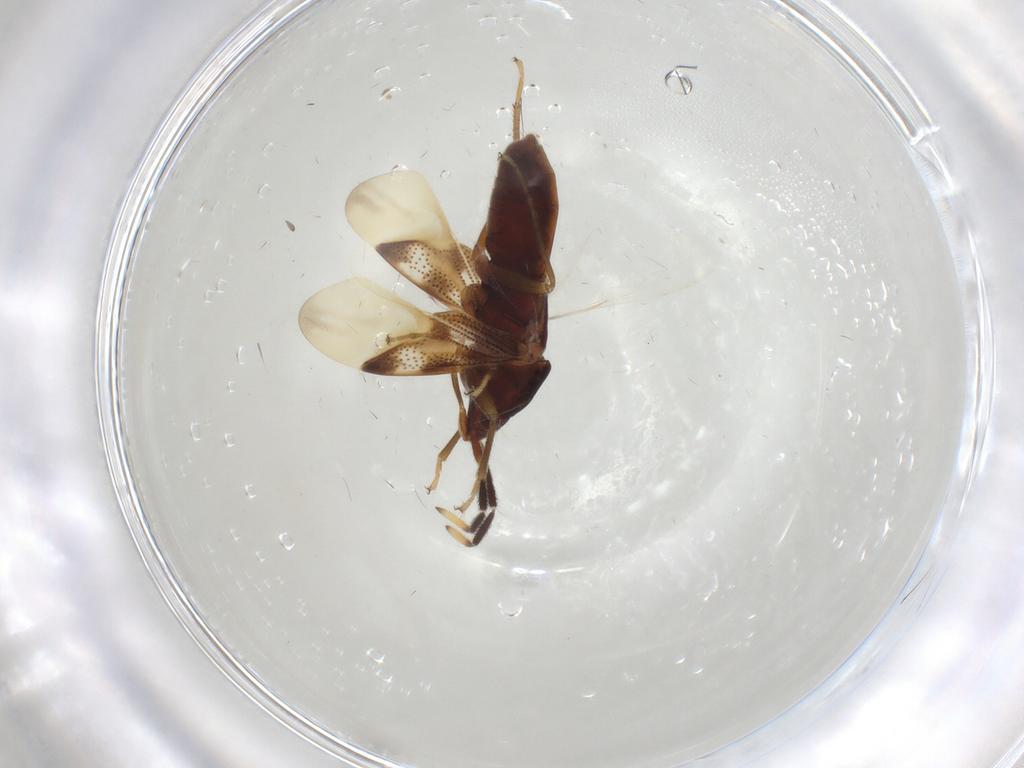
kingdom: Animalia
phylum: Arthropoda
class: Insecta
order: Hemiptera
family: Rhyparochromidae
